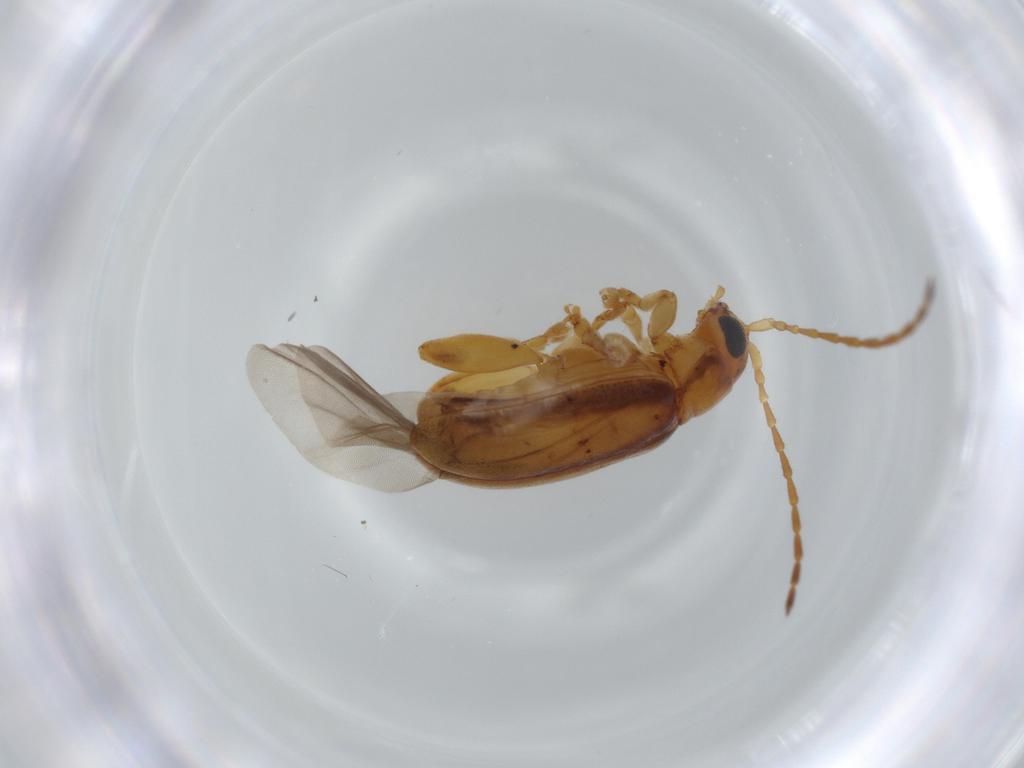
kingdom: Animalia
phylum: Arthropoda
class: Insecta
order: Coleoptera
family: Chrysomelidae
